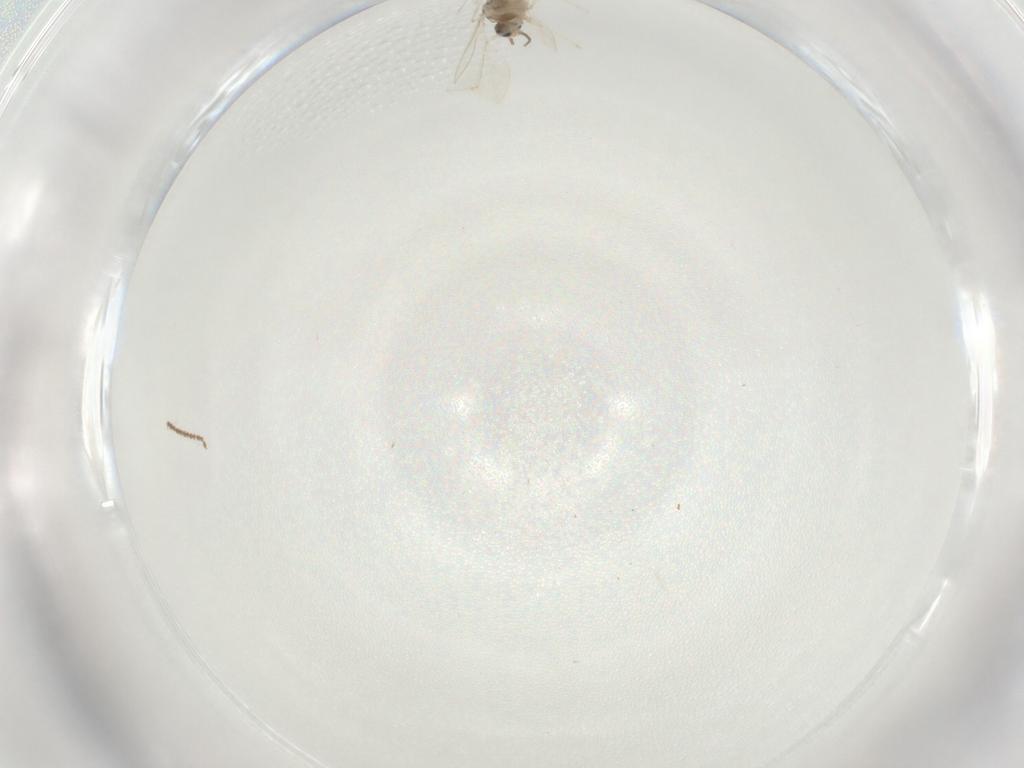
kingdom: Animalia
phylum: Arthropoda
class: Insecta
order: Diptera
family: Cecidomyiidae
